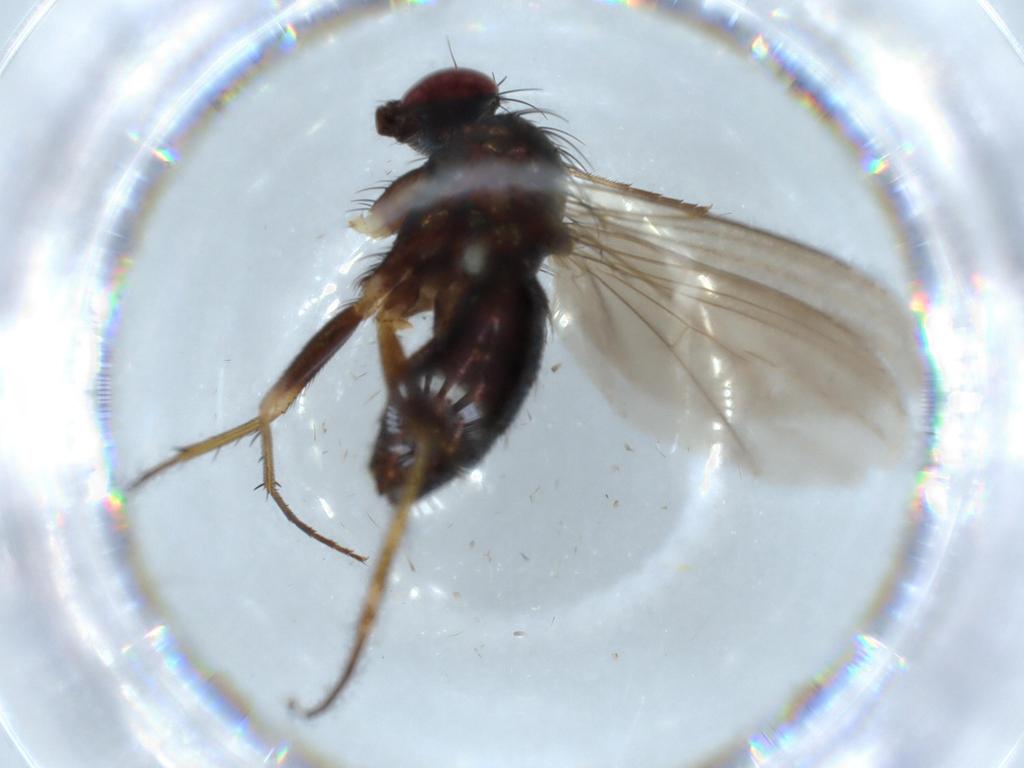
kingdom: Animalia
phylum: Arthropoda
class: Insecta
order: Diptera
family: Dolichopodidae
